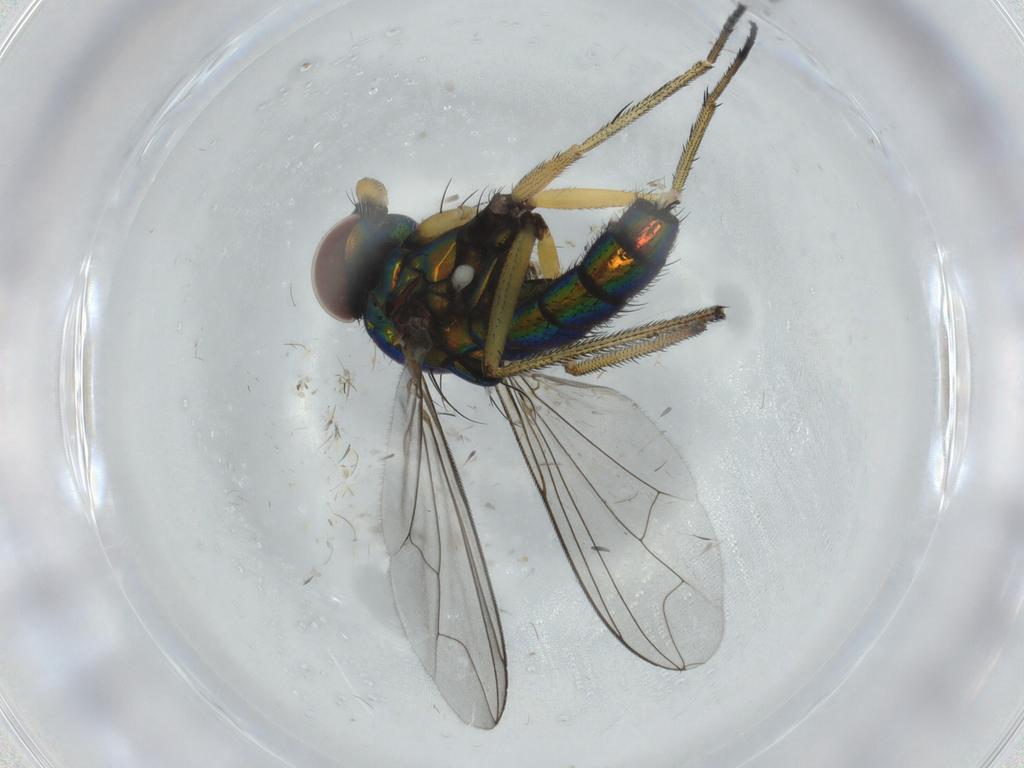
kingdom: Animalia
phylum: Arthropoda
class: Insecta
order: Diptera
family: Dolichopodidae
